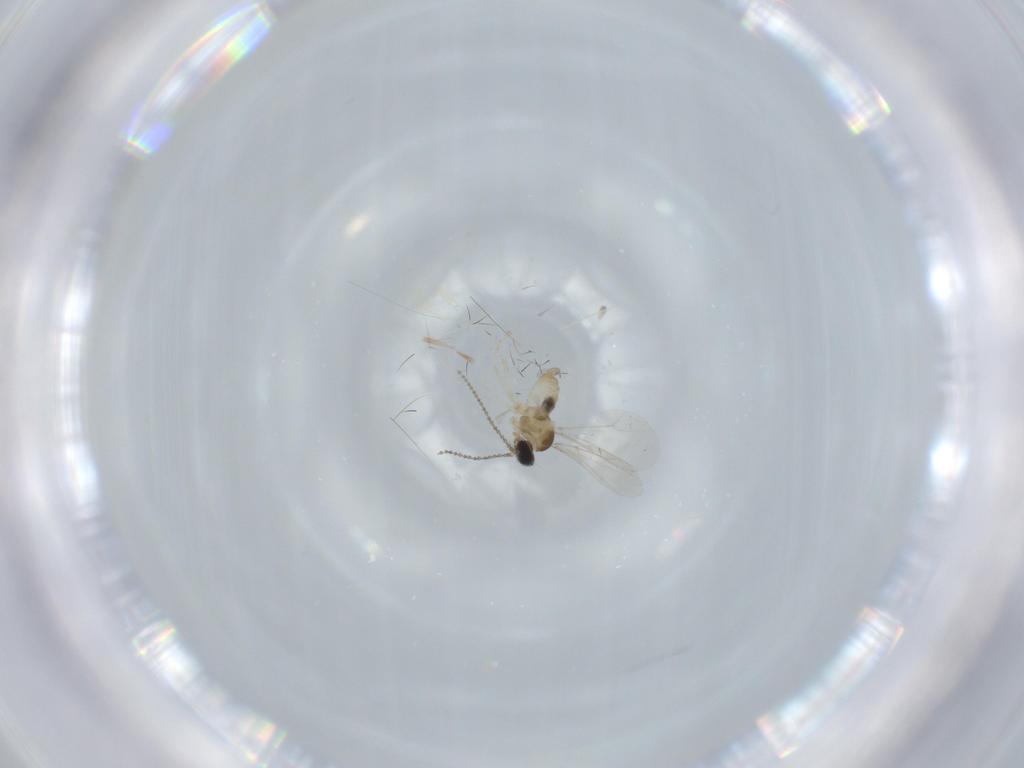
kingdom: Animalia
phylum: Arthropoda
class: Insecta
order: Diptera
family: Cecidomyiidae
